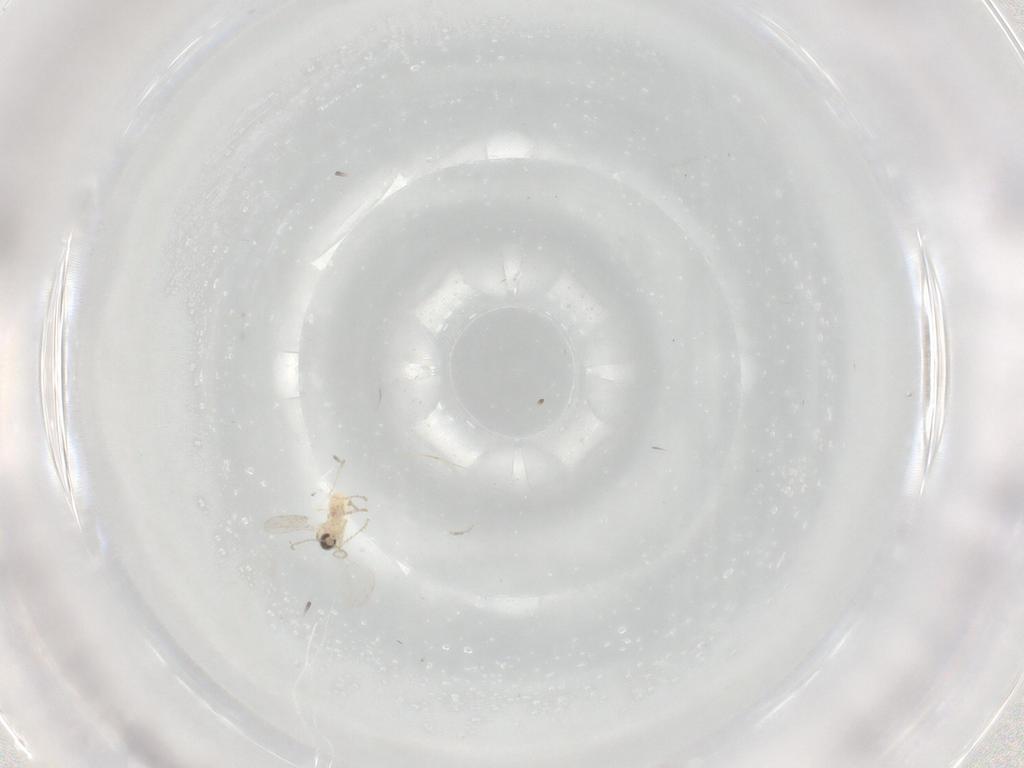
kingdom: Animalia
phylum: Arthropoda
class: Insecta
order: Diptera
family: Cecidomyiidae
